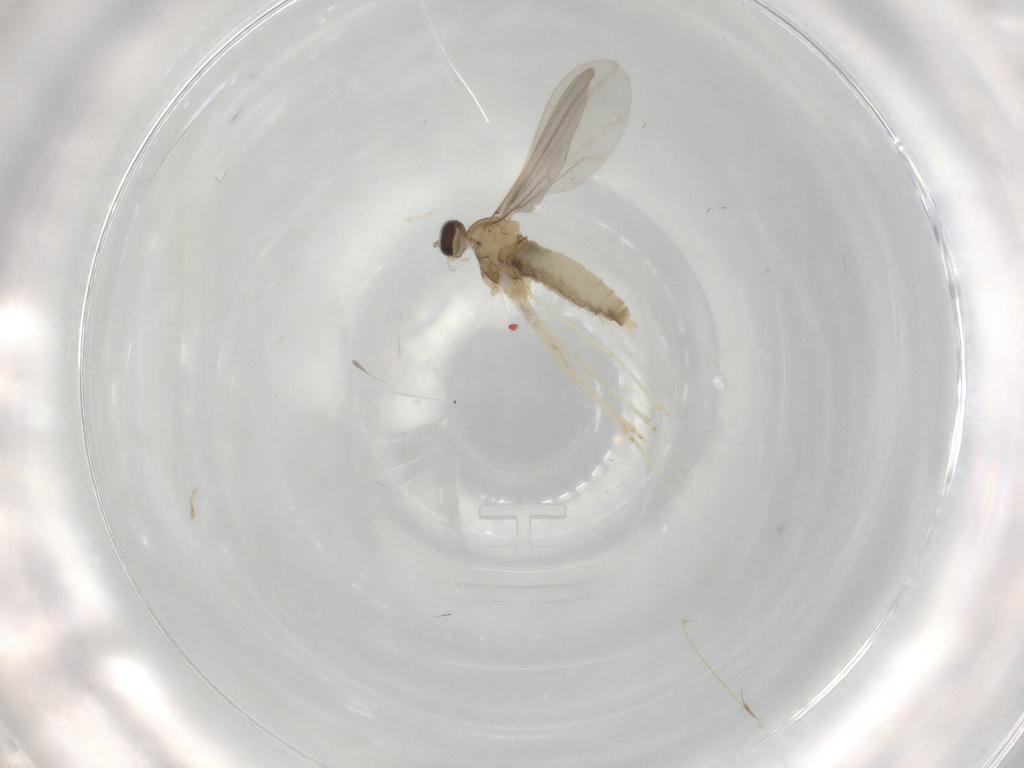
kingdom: Animalia
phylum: Arthropoda
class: Insecta
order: Diptera
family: Cecidomyiidae
